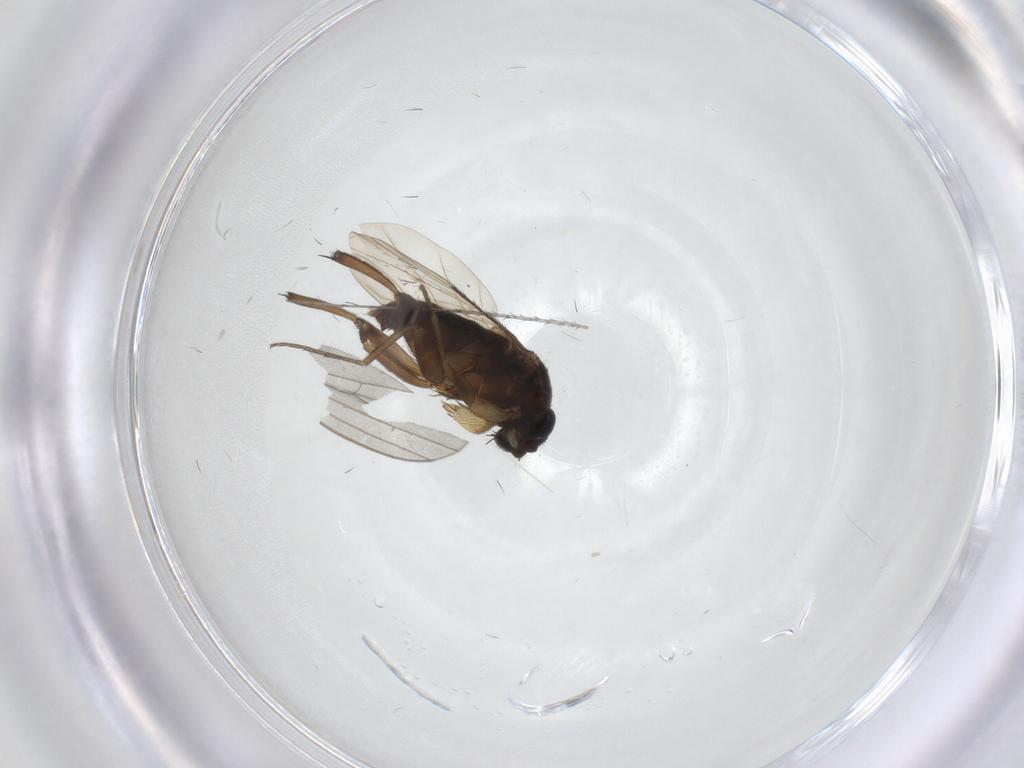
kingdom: Animalia
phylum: Arthropoda
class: Insecta
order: Diptera
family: Phoridae
